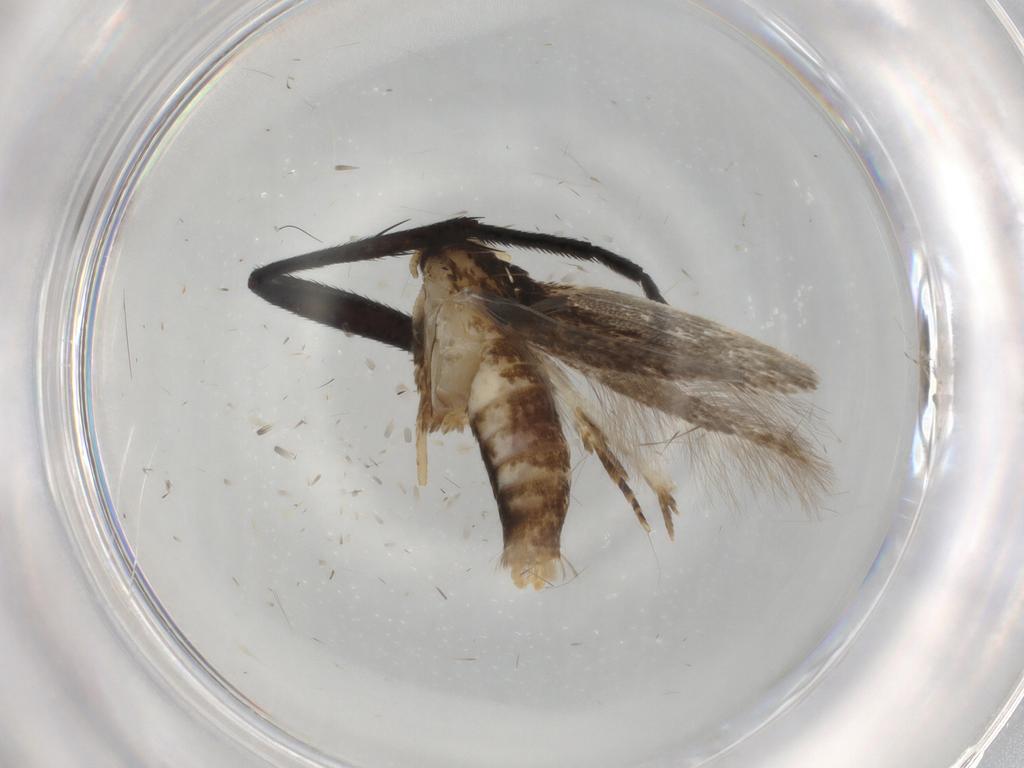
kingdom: Animalia
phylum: Arthropoda
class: Insecta
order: Lepidoptera
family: Cosmopterigidae
